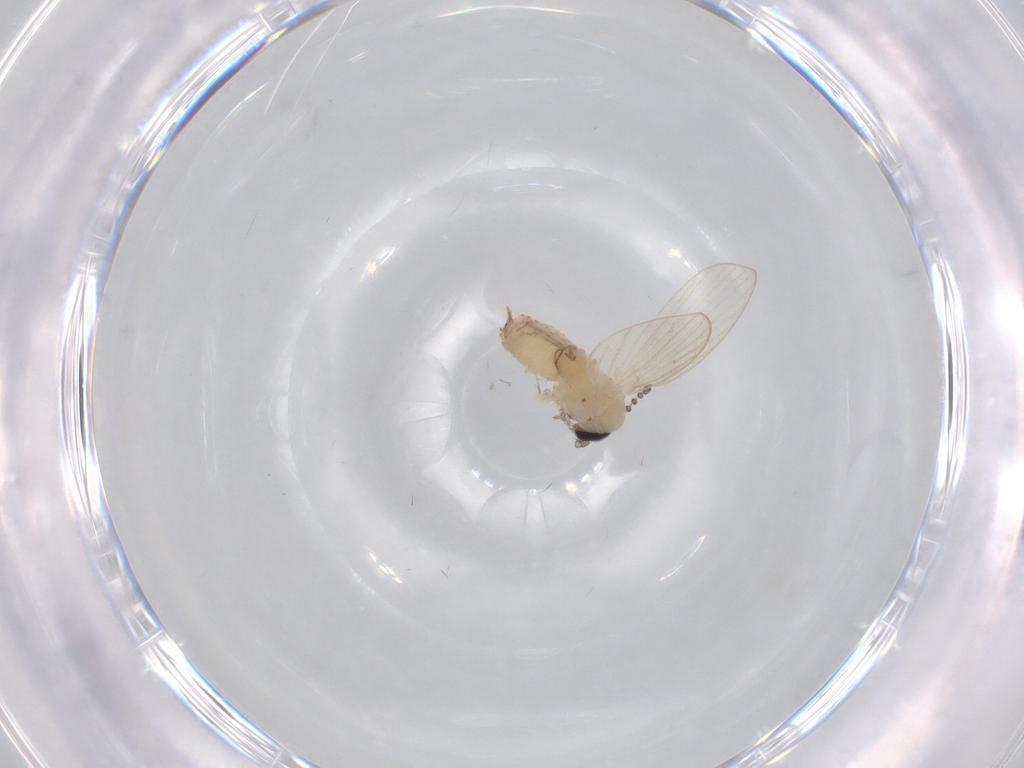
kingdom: Animalia
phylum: Arthropoda
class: Insecta
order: Diptera
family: Psychodidae
